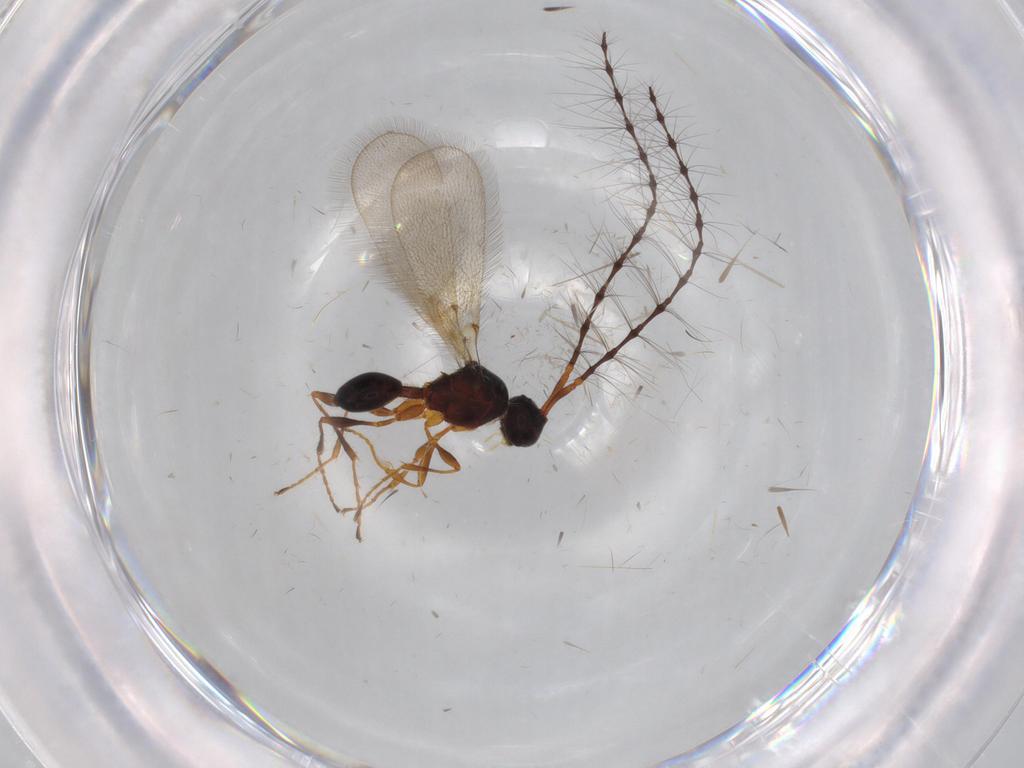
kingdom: Animalia
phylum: Arthropoda
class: Insecta
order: Hymenoptera
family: Diapriidae
